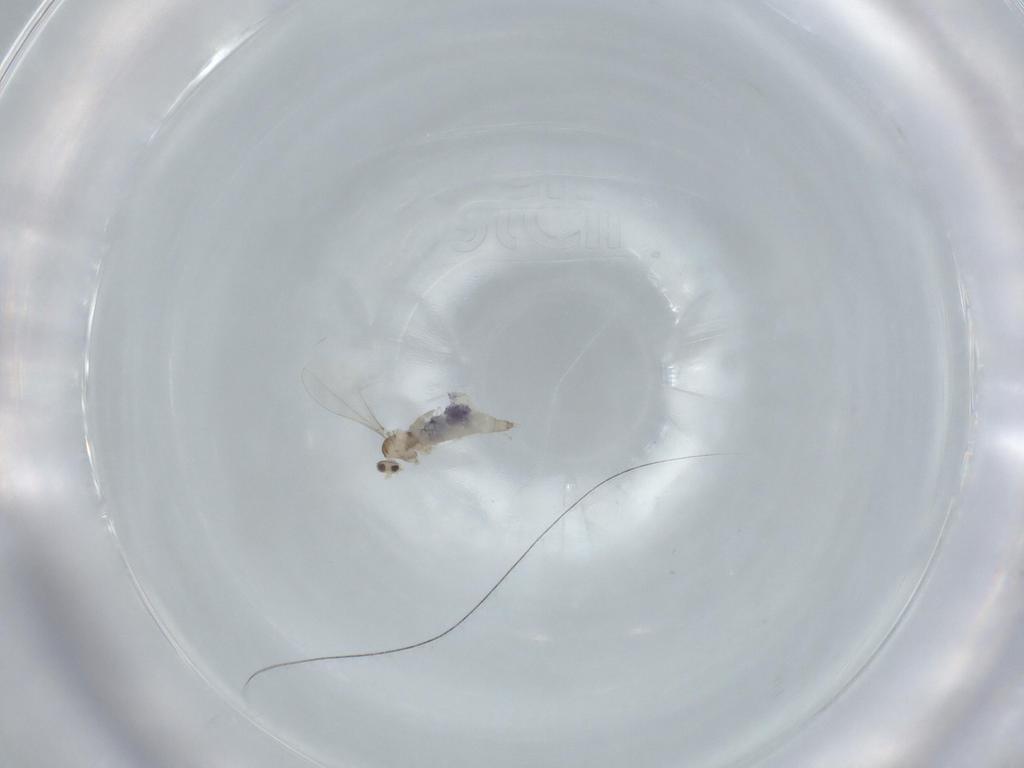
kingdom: Animalia
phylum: Arthropoda
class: Insecta
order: Diptera
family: Cecidomyiidae
